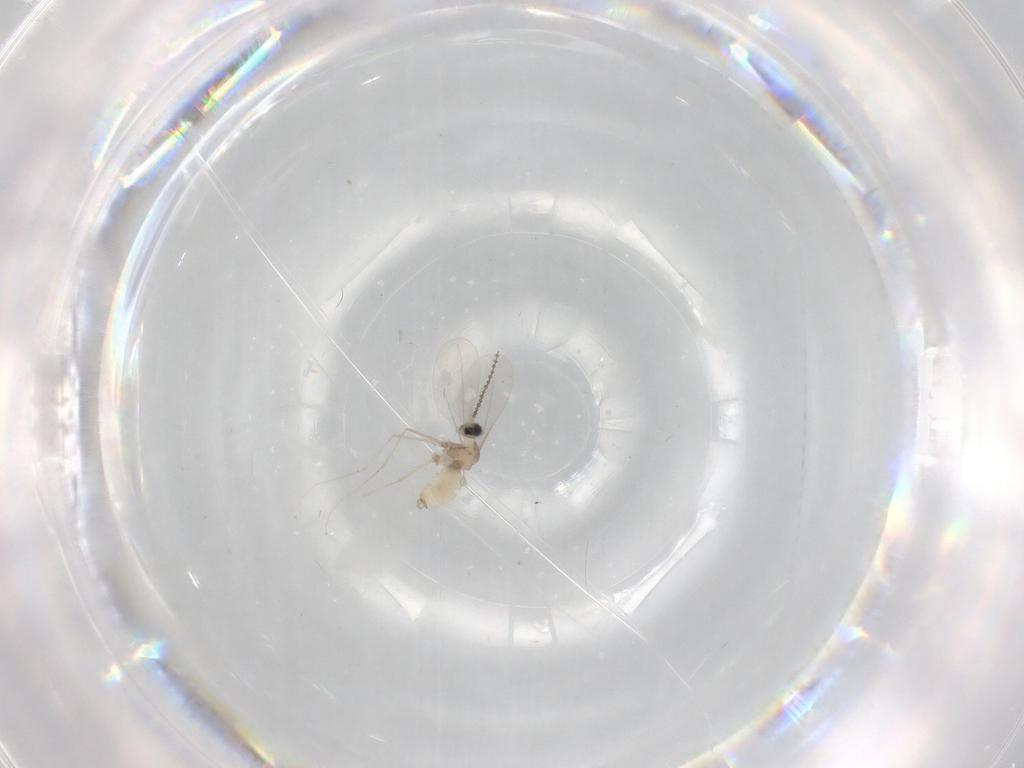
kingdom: Animalia
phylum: Arthropoda
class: Insecta
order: Diptera
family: Cecidomyiidae
